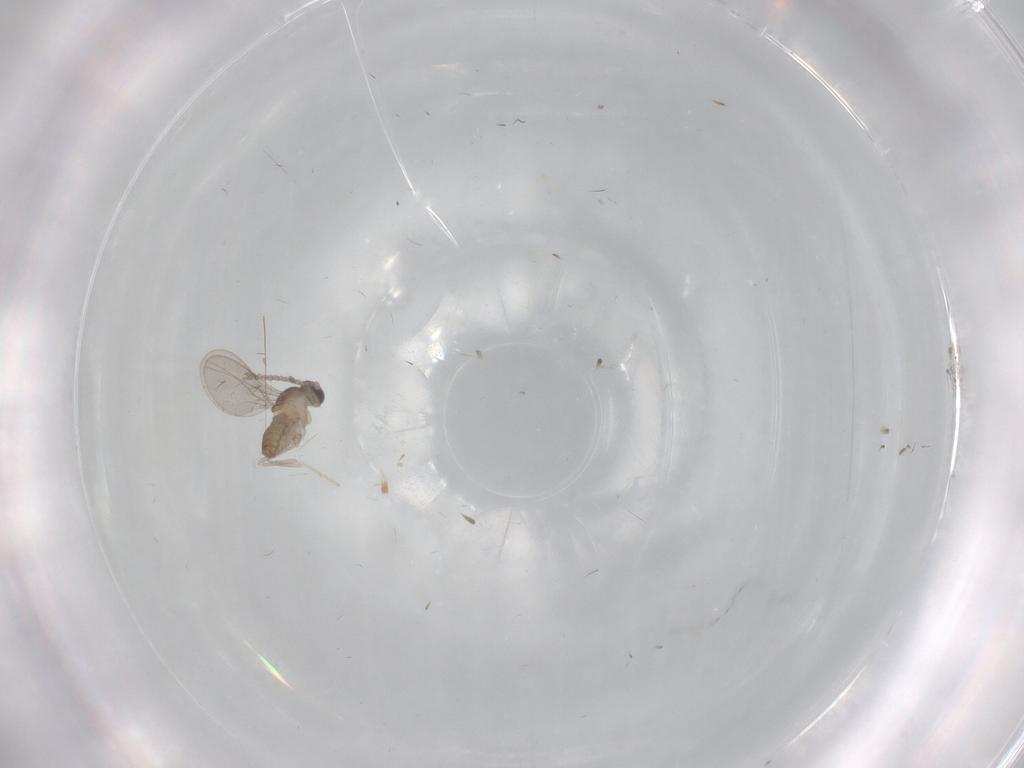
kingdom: Animalia
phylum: Arthropoda
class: Insecta
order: Diptera
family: Cecidomyiidae
